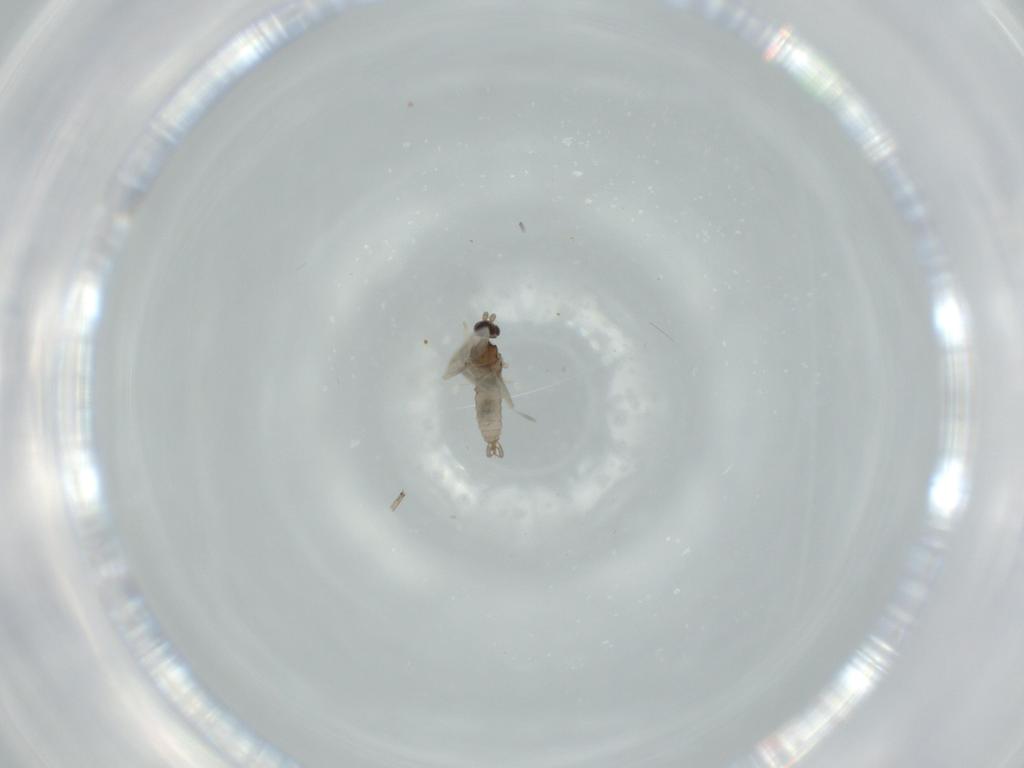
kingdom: Animalia
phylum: Arthropoda
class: Insecta
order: Diptera
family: Cecidomyiidae
